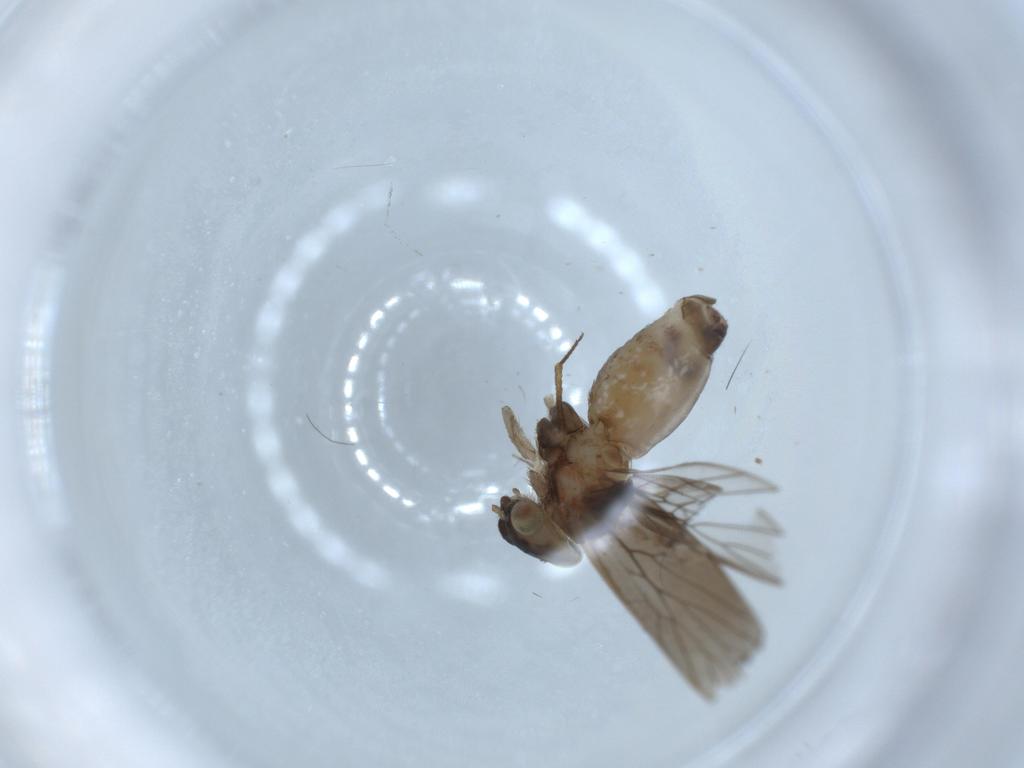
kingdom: Animalia
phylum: Arthropoda
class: Insecta
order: Psocodea
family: Lepidopsocidae
